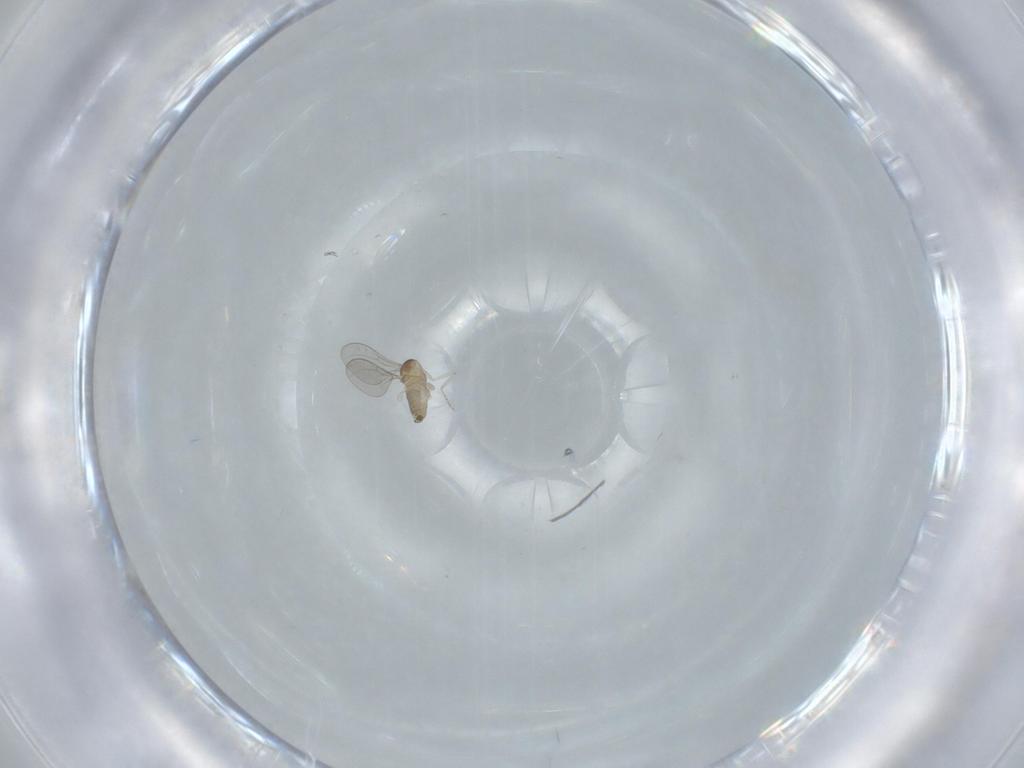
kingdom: Animalia
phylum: Arthropoda
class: Insecta
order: Diptera
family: Cecidomyiidae
